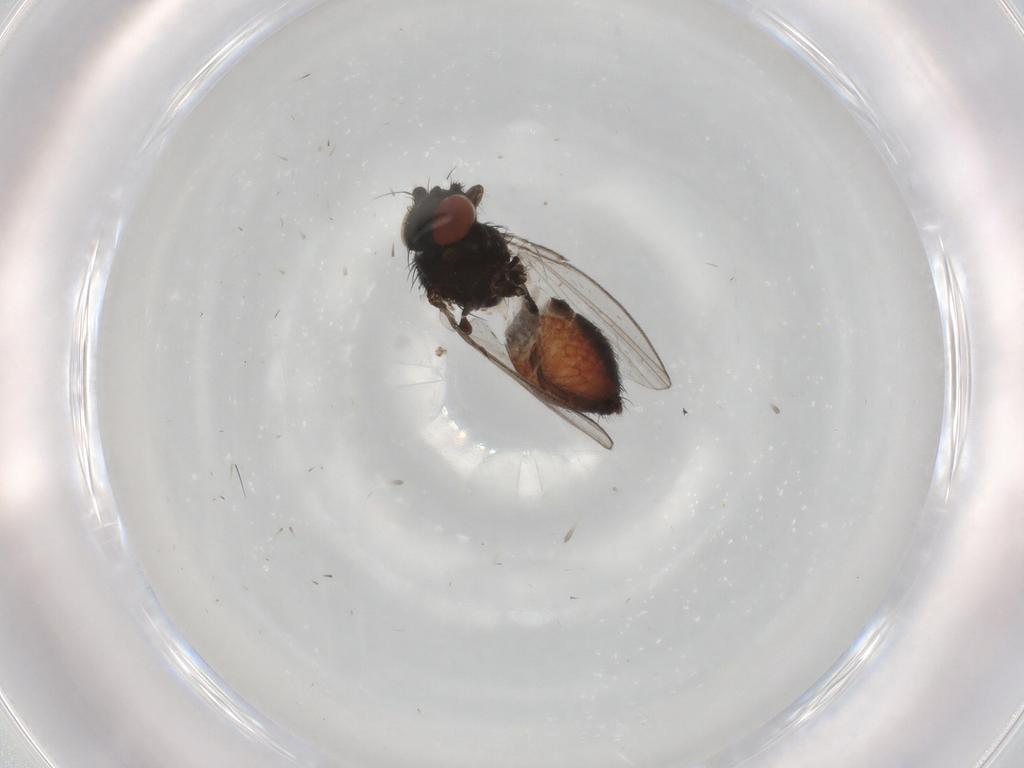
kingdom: Animalia
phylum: Arthropoda
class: Insecta
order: Diptera
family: Milichiidae
